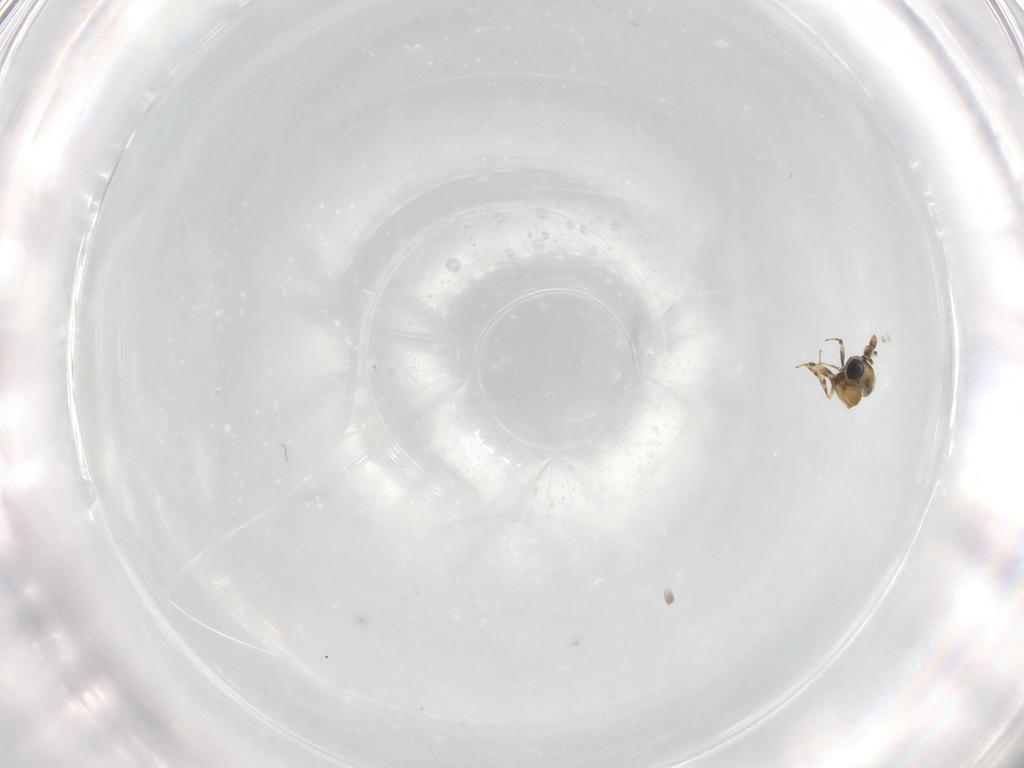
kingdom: Animalia
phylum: Arthropoda
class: Insecta
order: Hymenoptera
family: Scelionidae
